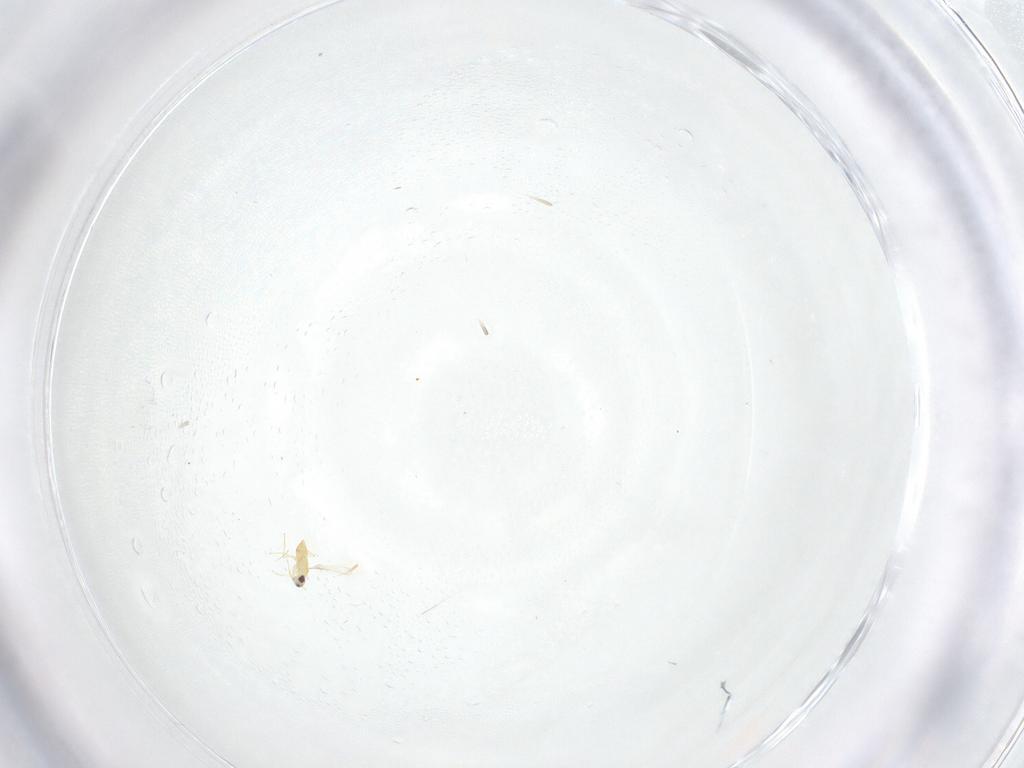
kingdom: Animalia
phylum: Arthropoda
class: Insecta
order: Hymenoptera
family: Mymaridae
